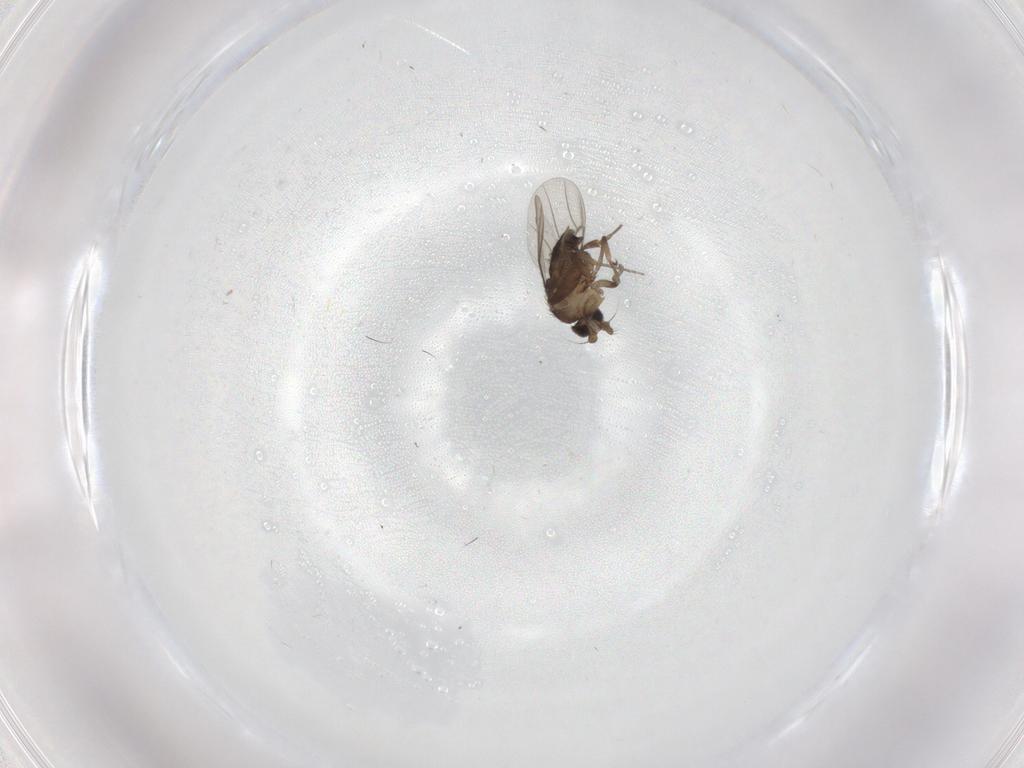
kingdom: Animalia
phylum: Arthropoda
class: Insecta
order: Diptera
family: Phoridae
